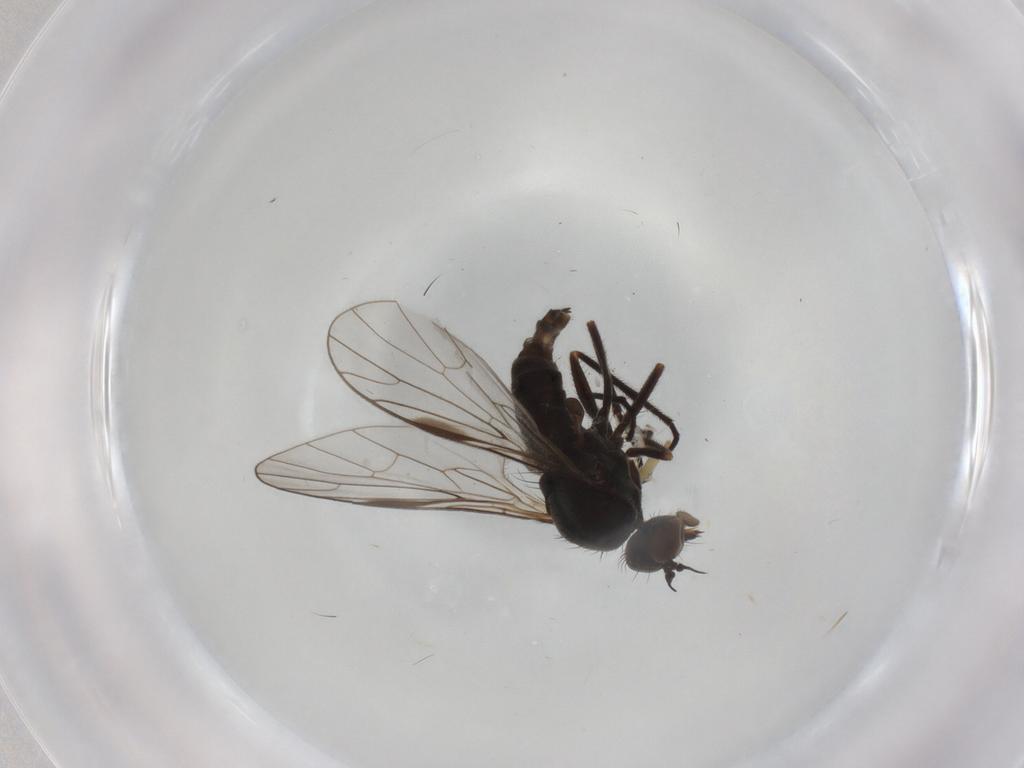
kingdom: Animalia
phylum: Arthropoda
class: Insecta
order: Diptera
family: Empididae
